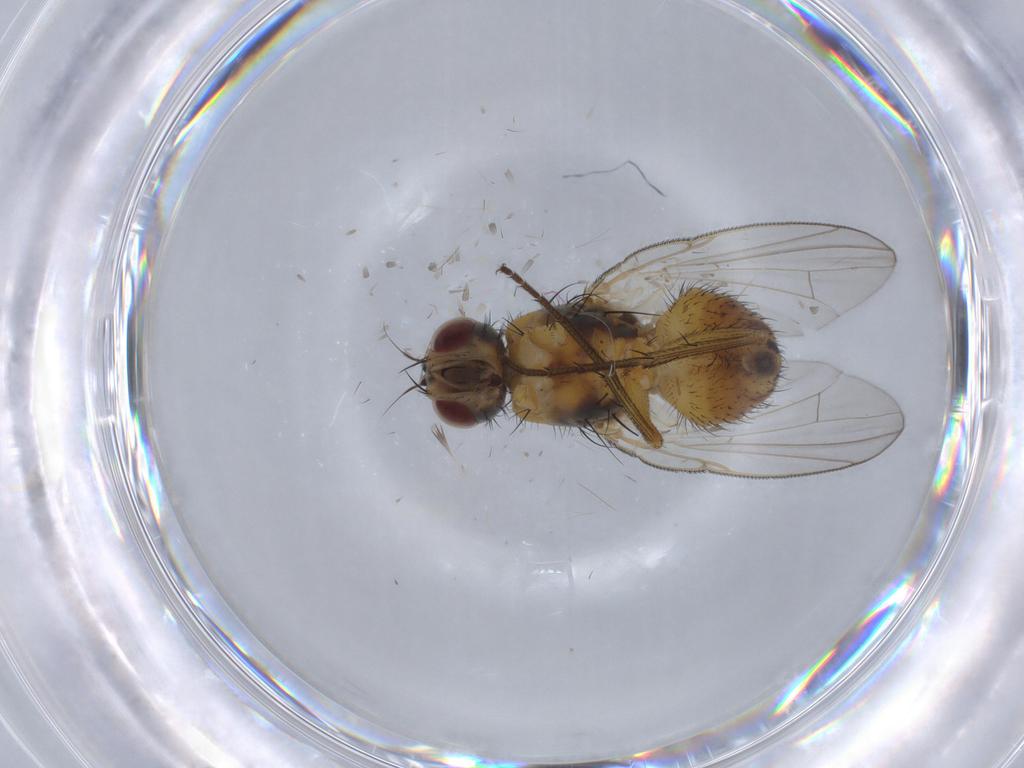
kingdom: Animalia
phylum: Arthropoda
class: Insecta
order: Diptera
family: Muscidae
